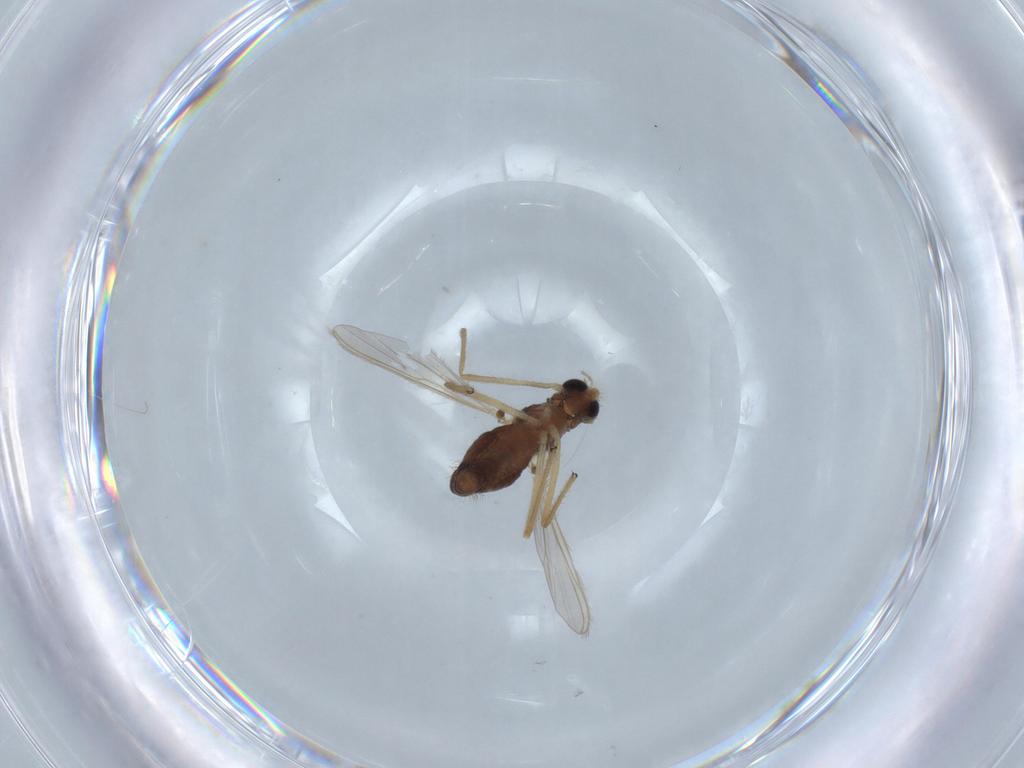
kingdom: Animalia
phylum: Arthropoda
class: Insecta
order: Diptera
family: Chironomidae
